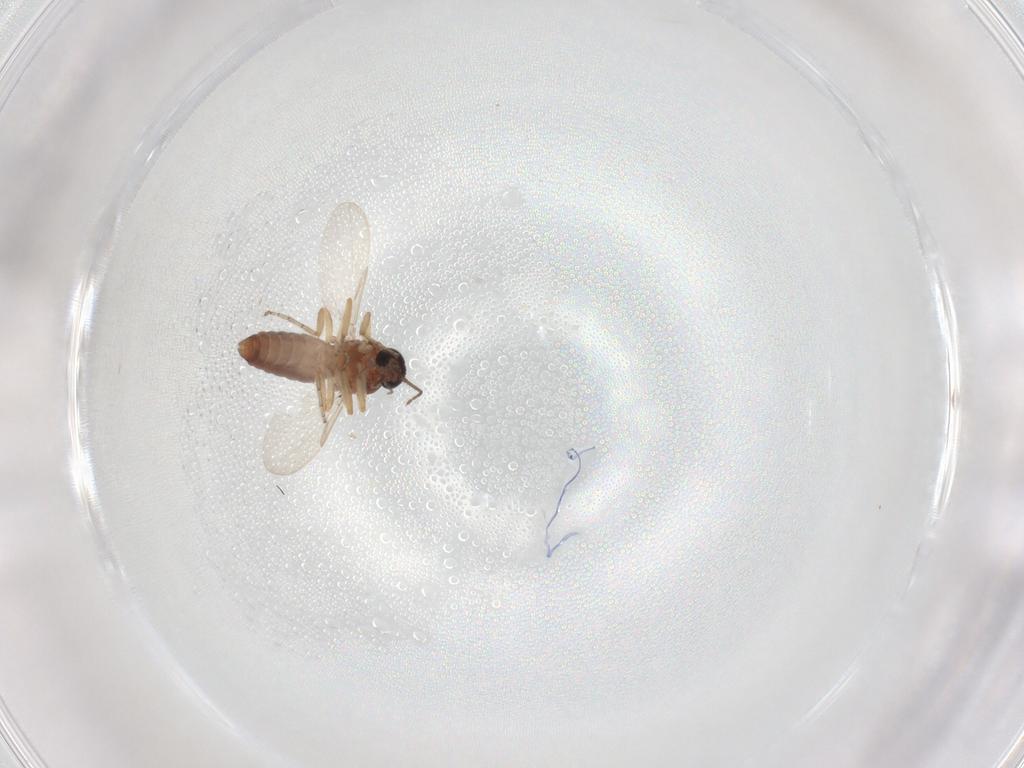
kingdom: Animalia
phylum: Arthropoda
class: Insecta
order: Diptera
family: Ceratopogonidae
